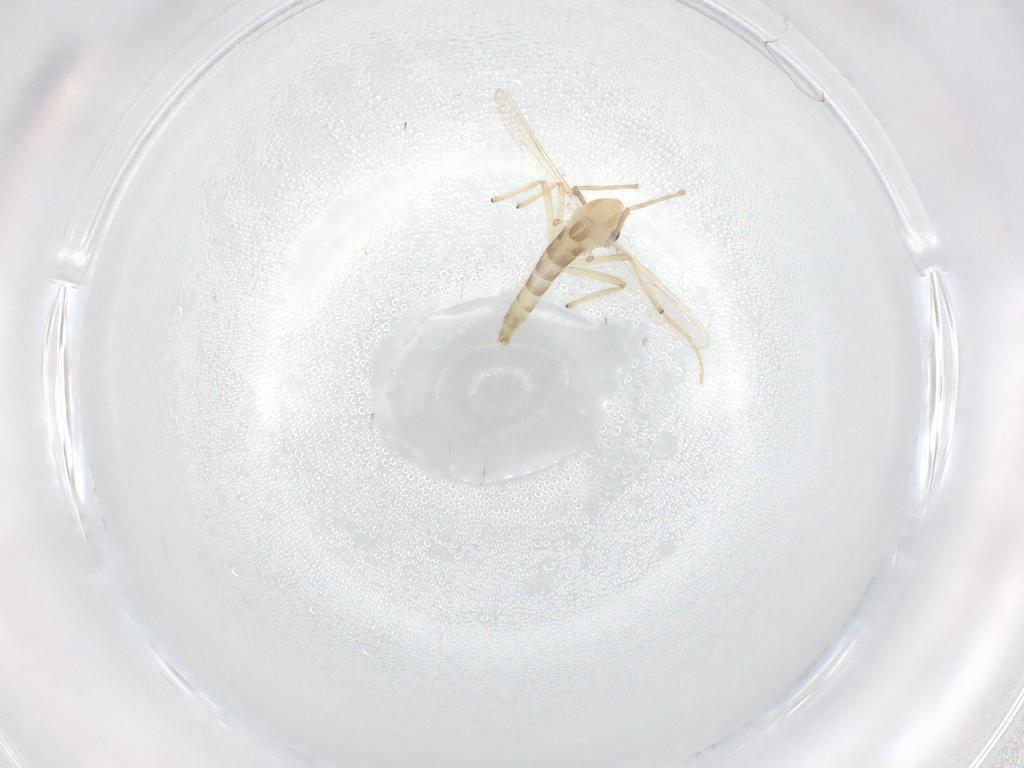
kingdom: Animalia
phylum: Arthropoda
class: Insecta
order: Diptera
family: Chironomidae
